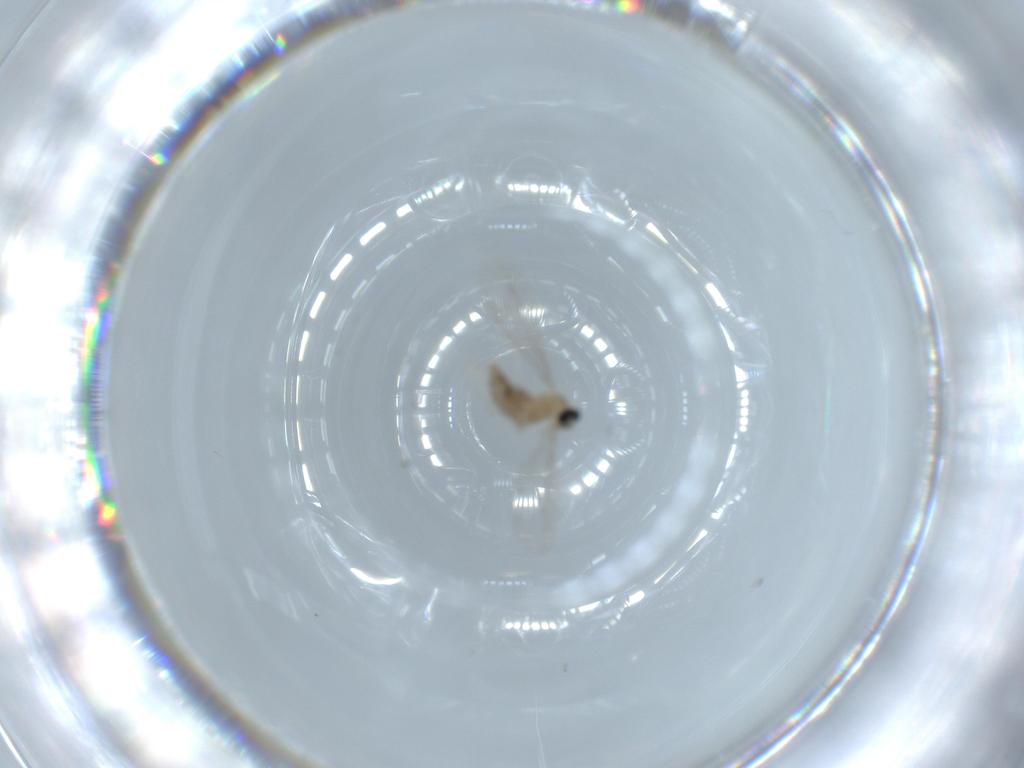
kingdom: Animalia
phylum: Arthropoda
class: Insecta
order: Diptera
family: Cecidomyiidae
